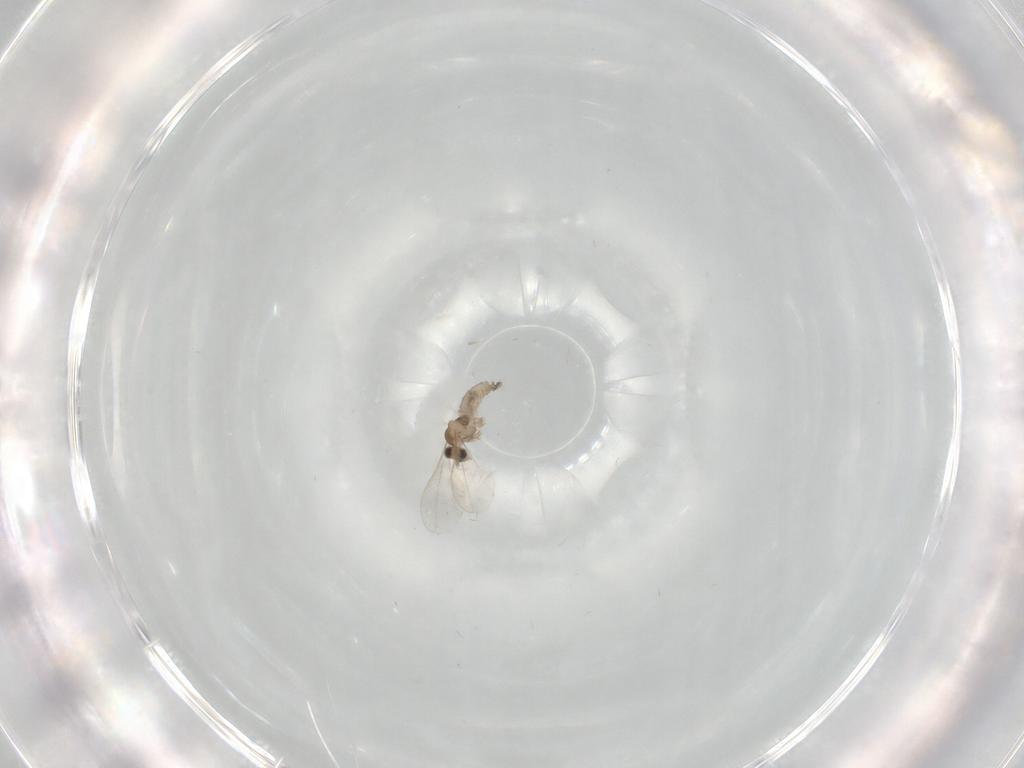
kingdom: Animalia
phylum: Arthropoda
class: Insecta
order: Diptera
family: Cecidomyiidae
